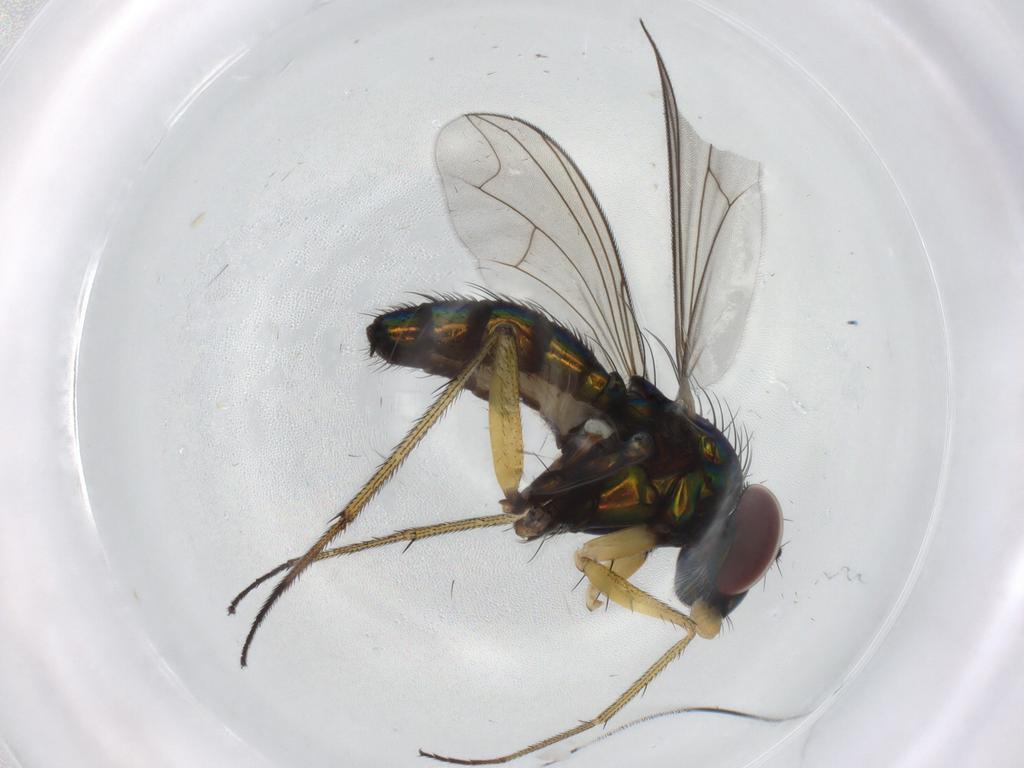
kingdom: Animalia
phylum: Arthropoda
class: Insecta
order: Diptera
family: Dolichopodidae
